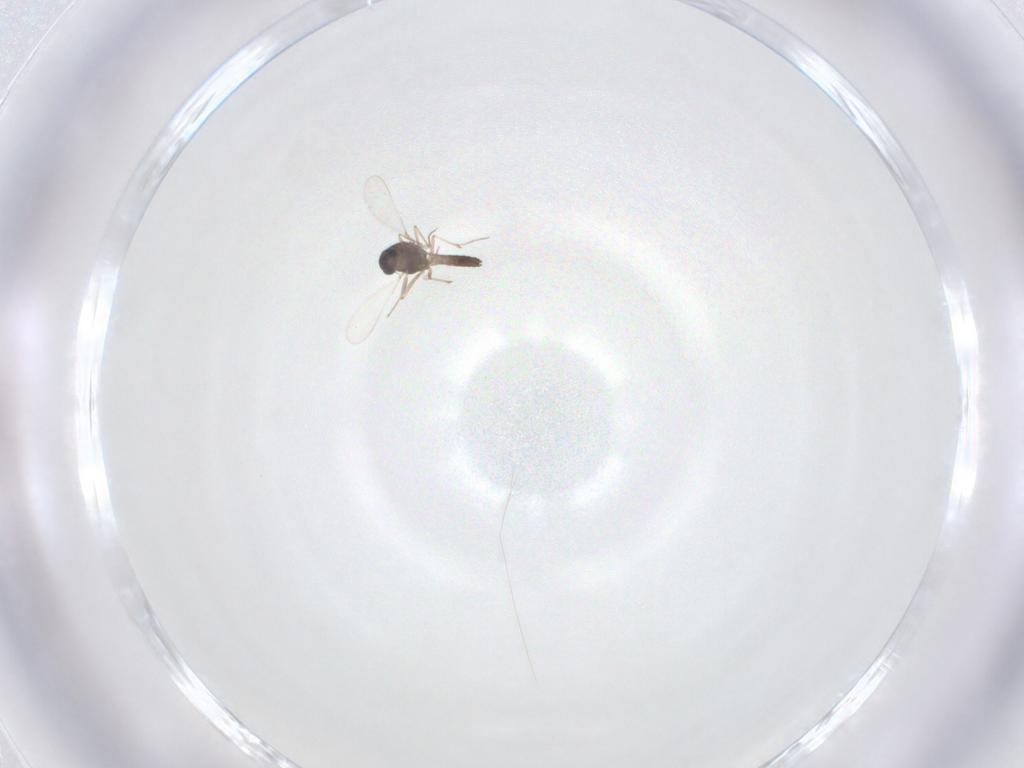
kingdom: Animalia
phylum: Arthropoda
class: Insecta
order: Diptera
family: Chironomidae
